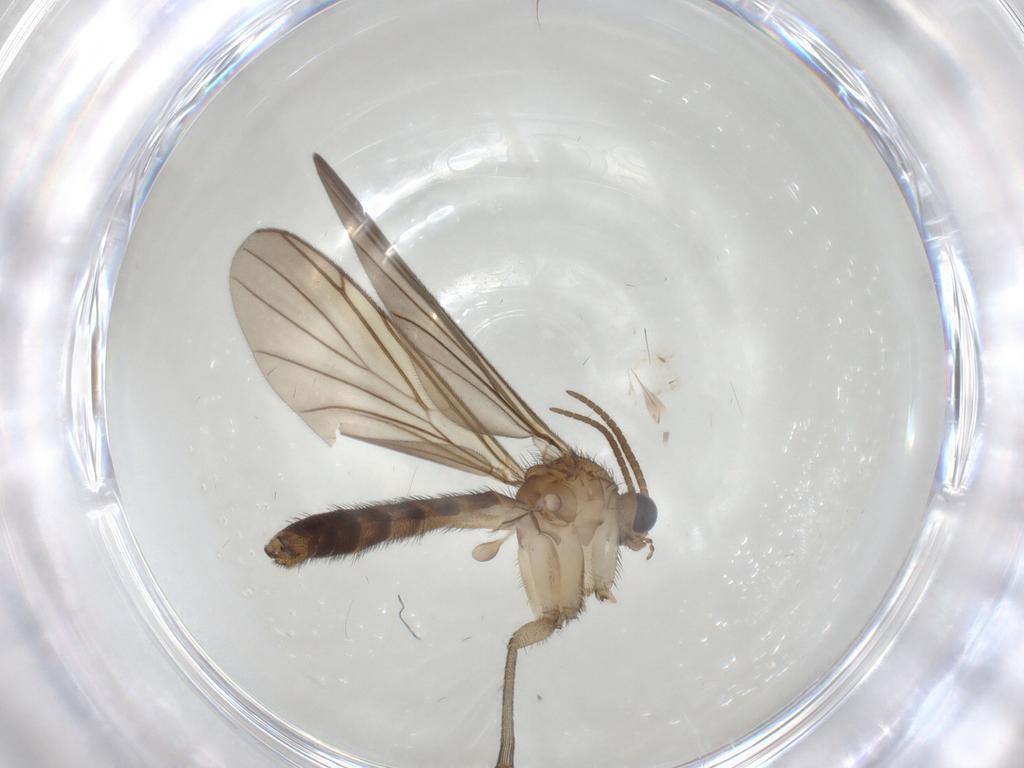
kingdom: Animalia
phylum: Arthropoda
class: Insecta
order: Diptera
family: Keroplatidae
